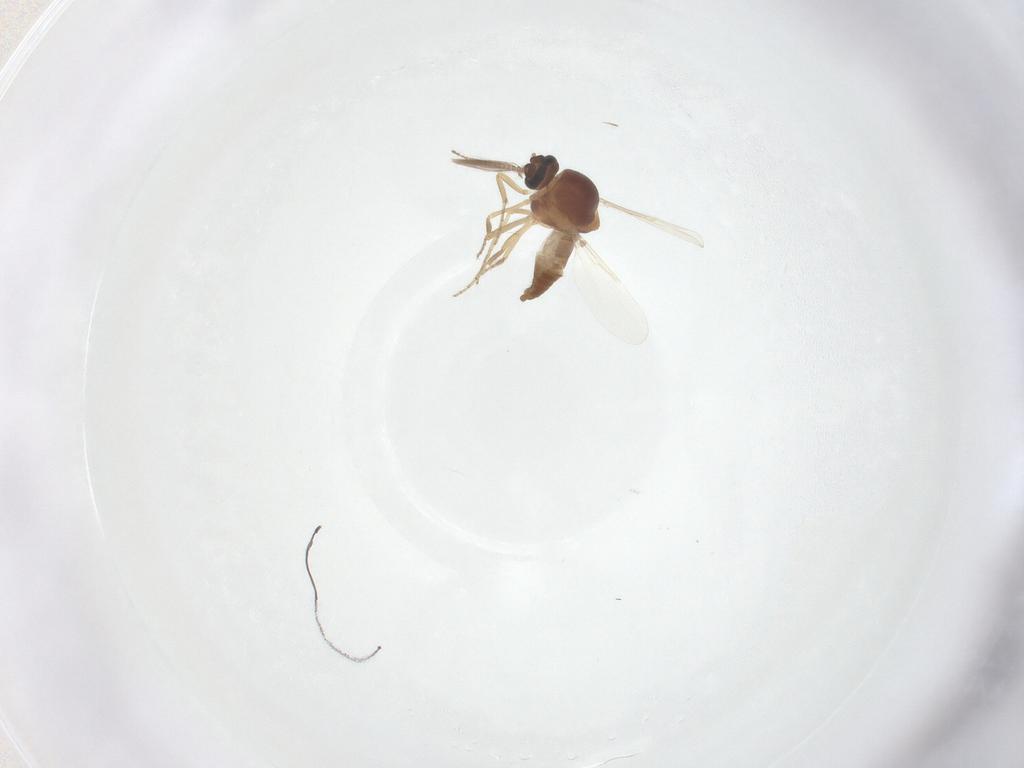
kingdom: Animalia
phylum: Arthropoda
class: Insecta
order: Diptera
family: Ceratopogonidae
